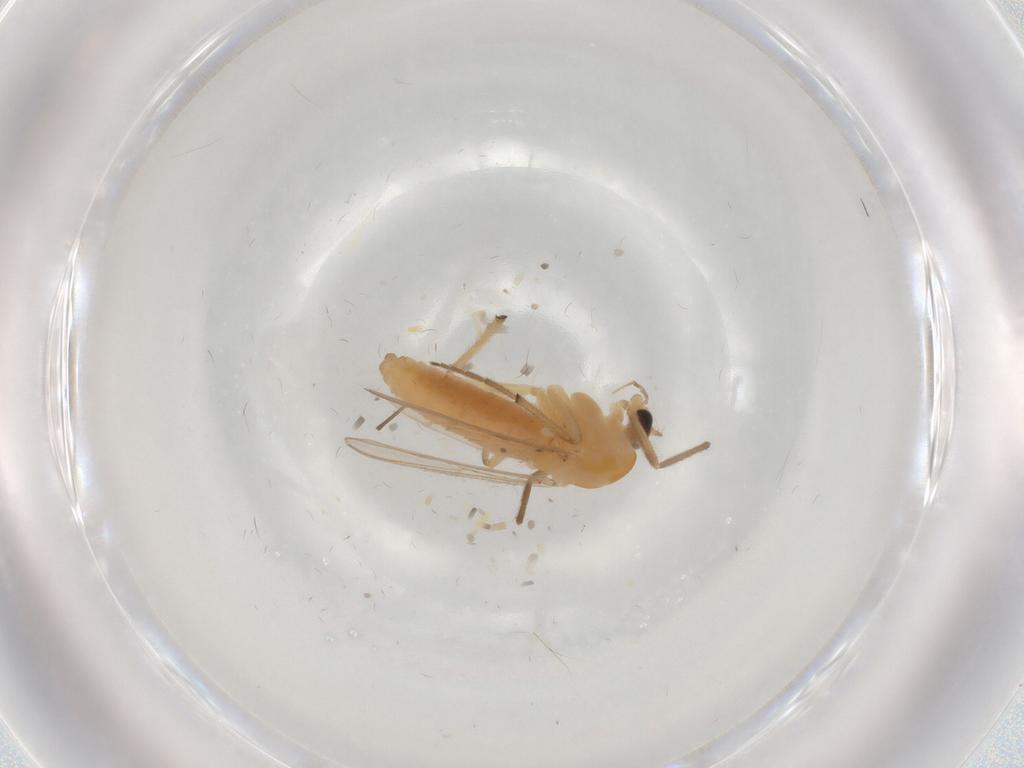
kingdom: Animalia
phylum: Arthropoda
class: Insecta
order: Diptera
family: Chironomidae
